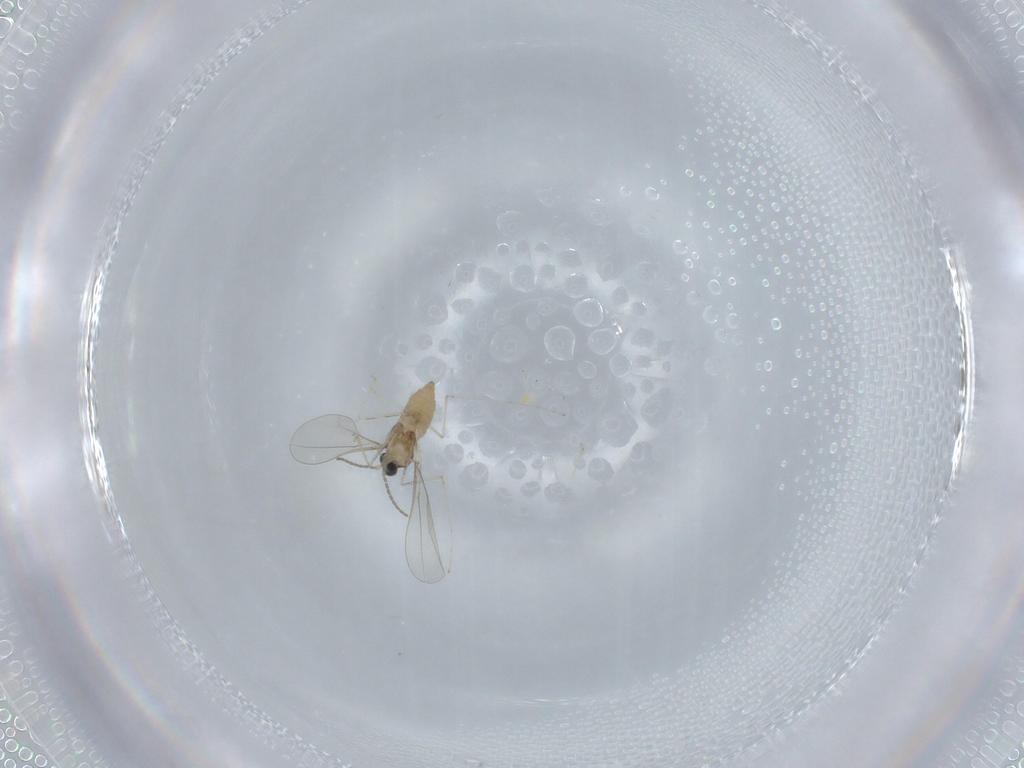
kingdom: Animalia
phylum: Arthropoda
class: Insecta
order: Diptera
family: Cecidomyiidae
